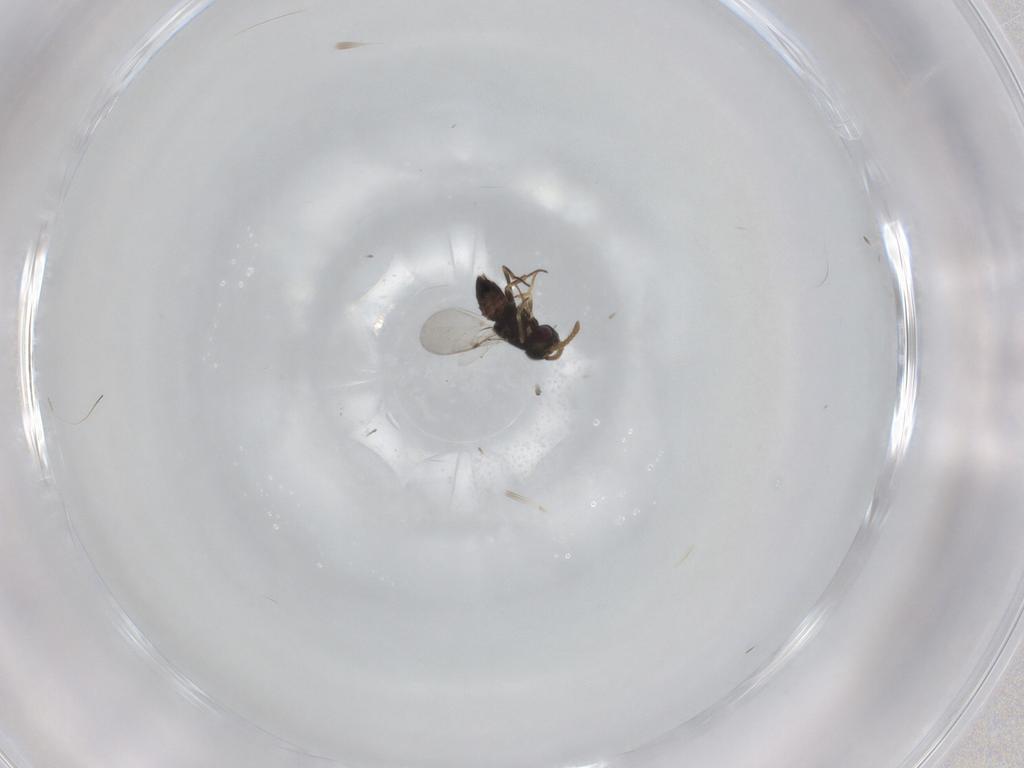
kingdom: Animalia
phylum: Arthropoda
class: Insecta
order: Hymenoptera
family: Encyrtidae
